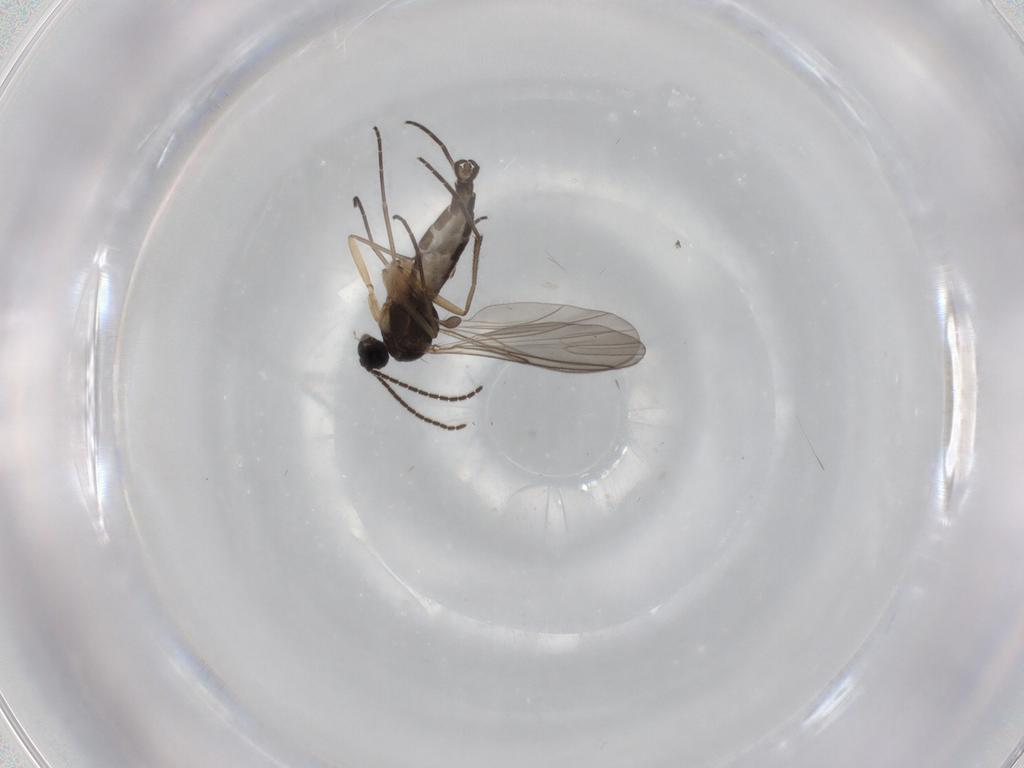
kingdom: Animalia
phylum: Arthropoda
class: Insecta
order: Diptera
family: Sciaridae
